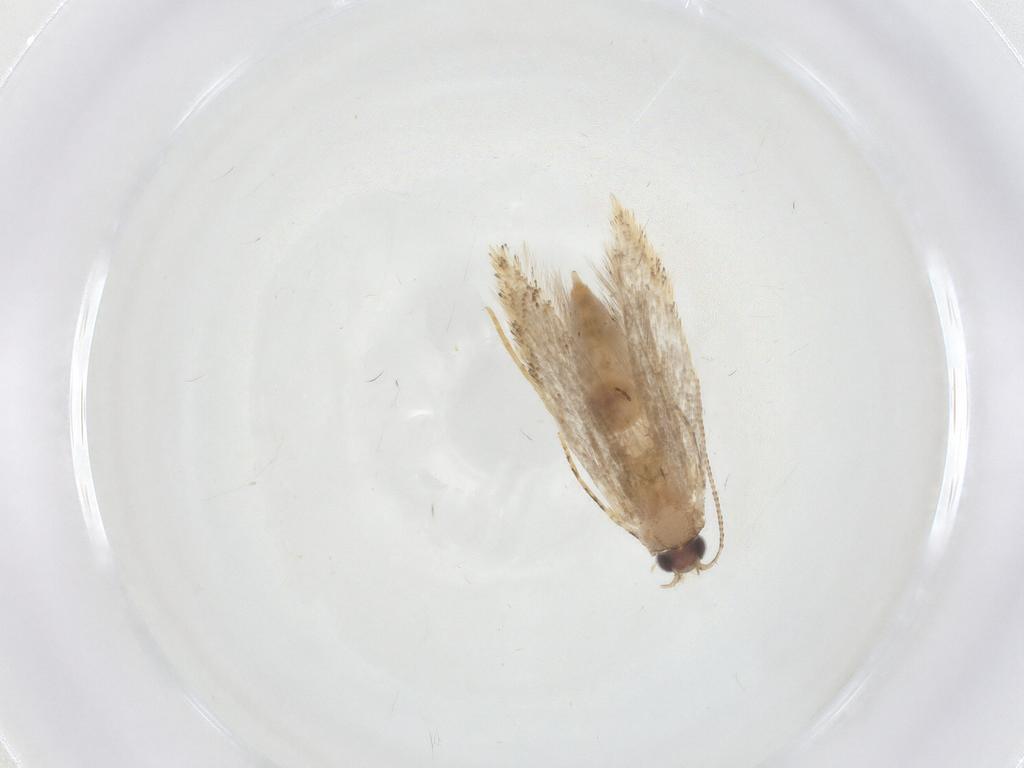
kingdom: Animalia
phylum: Arthropoda
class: Insecta
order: Lepidoptera
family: Tineidae
